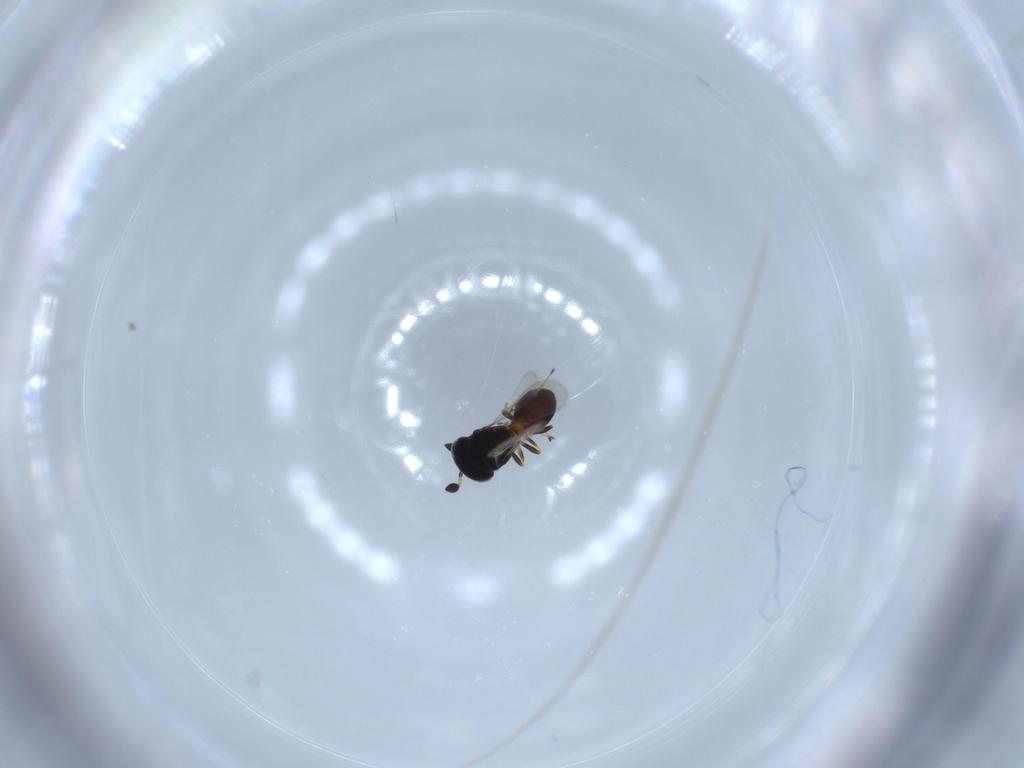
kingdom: Animalia
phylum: Arthropoda
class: Insecta
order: Hymenoptera
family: Scelionidae
